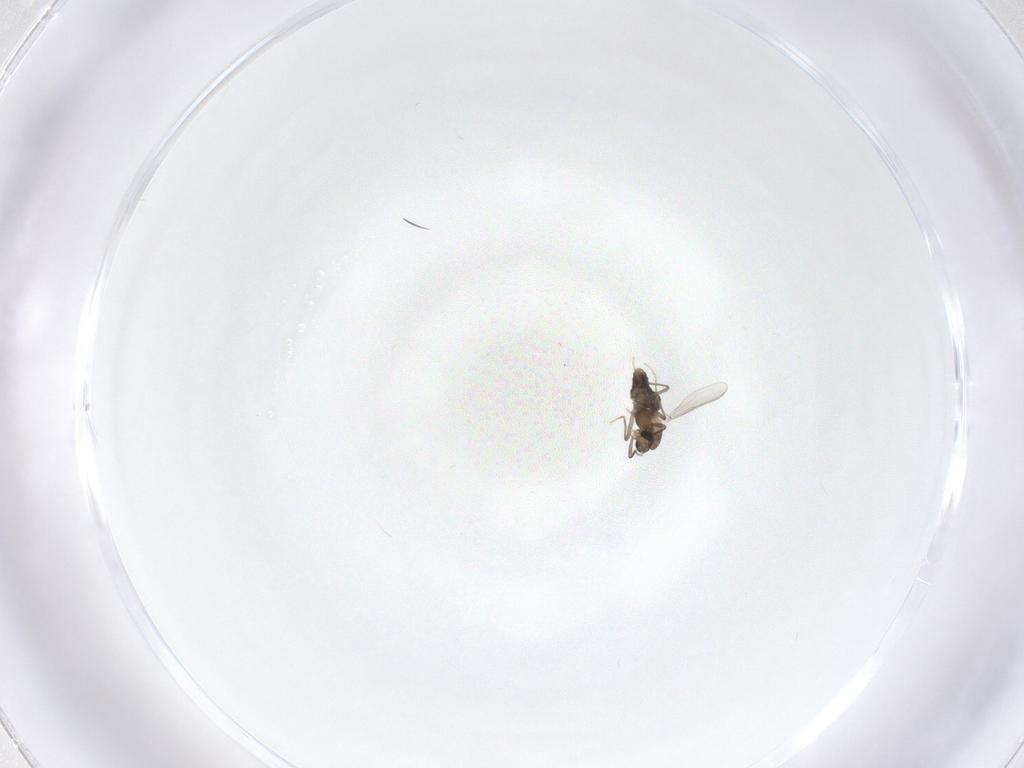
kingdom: Animalia
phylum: Arthropoda
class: Insecta
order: Diptera
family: Chironomidae
